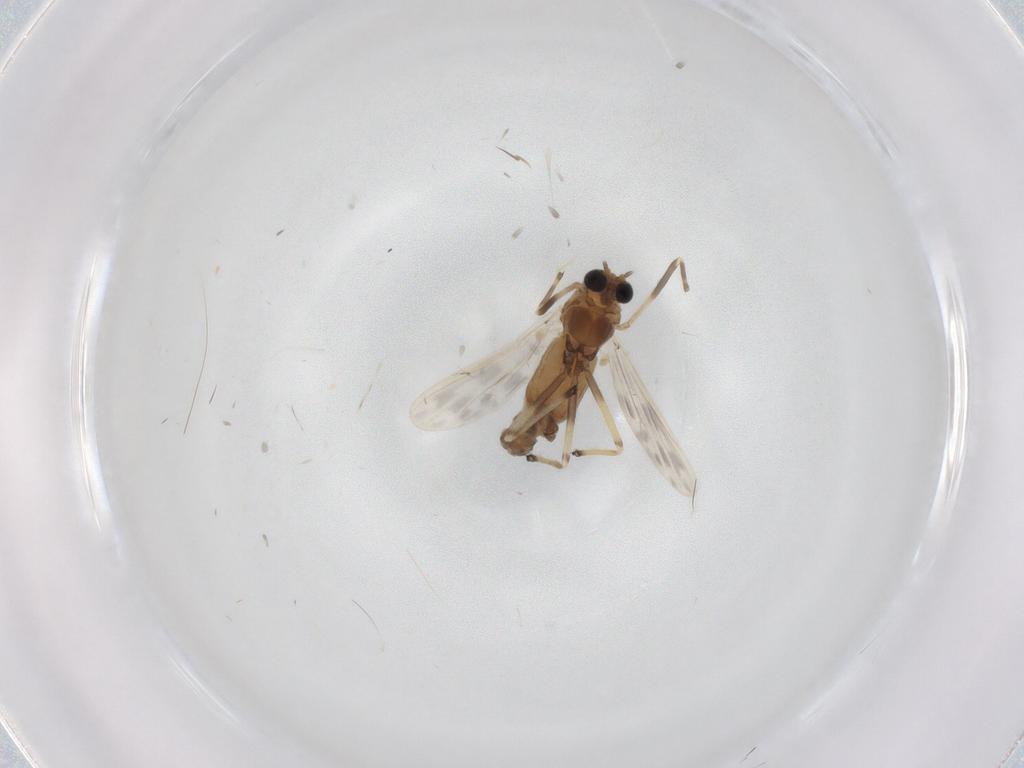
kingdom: Animalia
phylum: Arthropoda
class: Insecta
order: Diptera
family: Chironomidae
